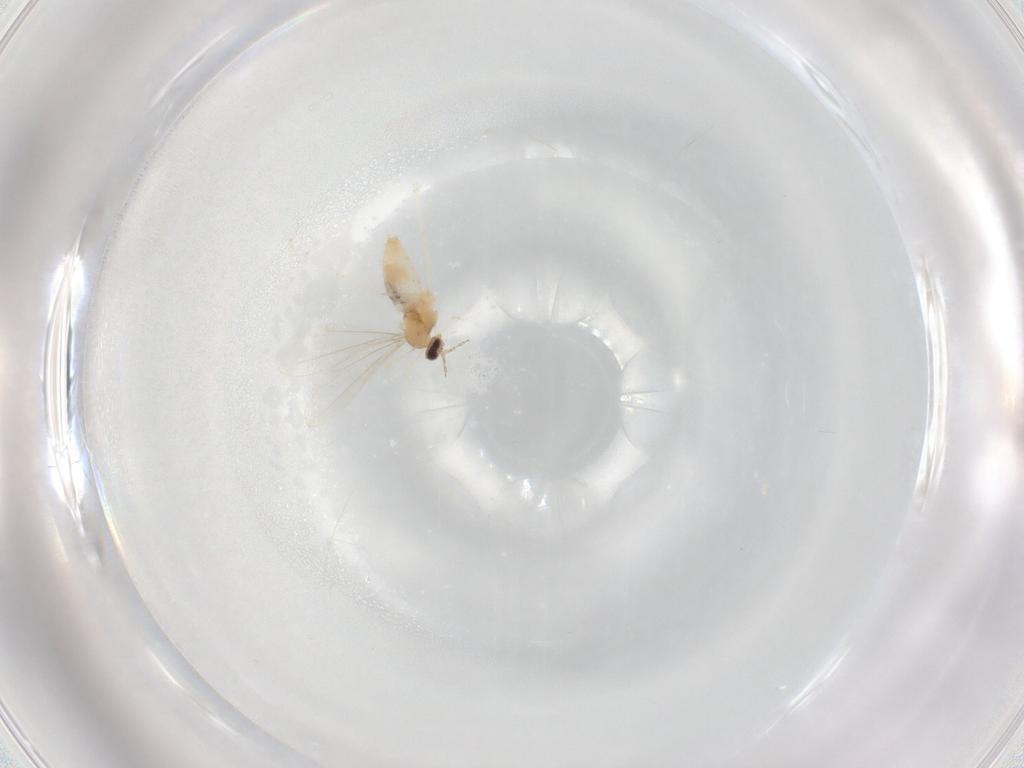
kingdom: Animalia
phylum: Arthropoda
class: Insecta
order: Diptera
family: Cecidomyiidae
